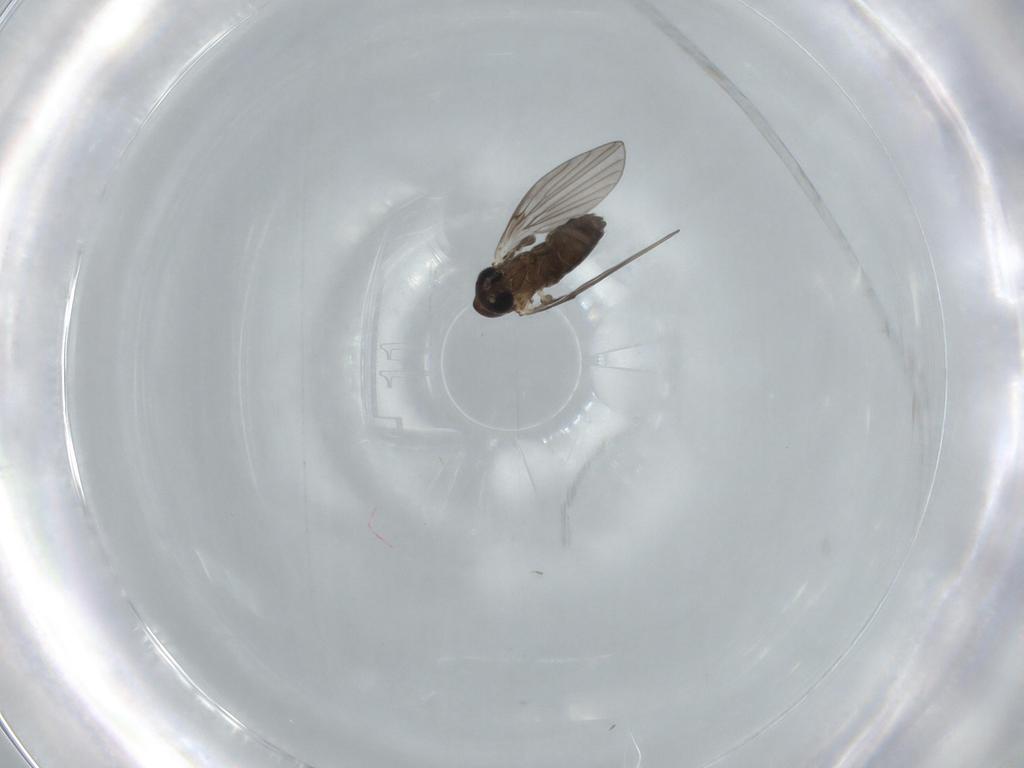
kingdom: Animalia
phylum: Arthropoda
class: Insecta
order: Diptera
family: Psychodidae
